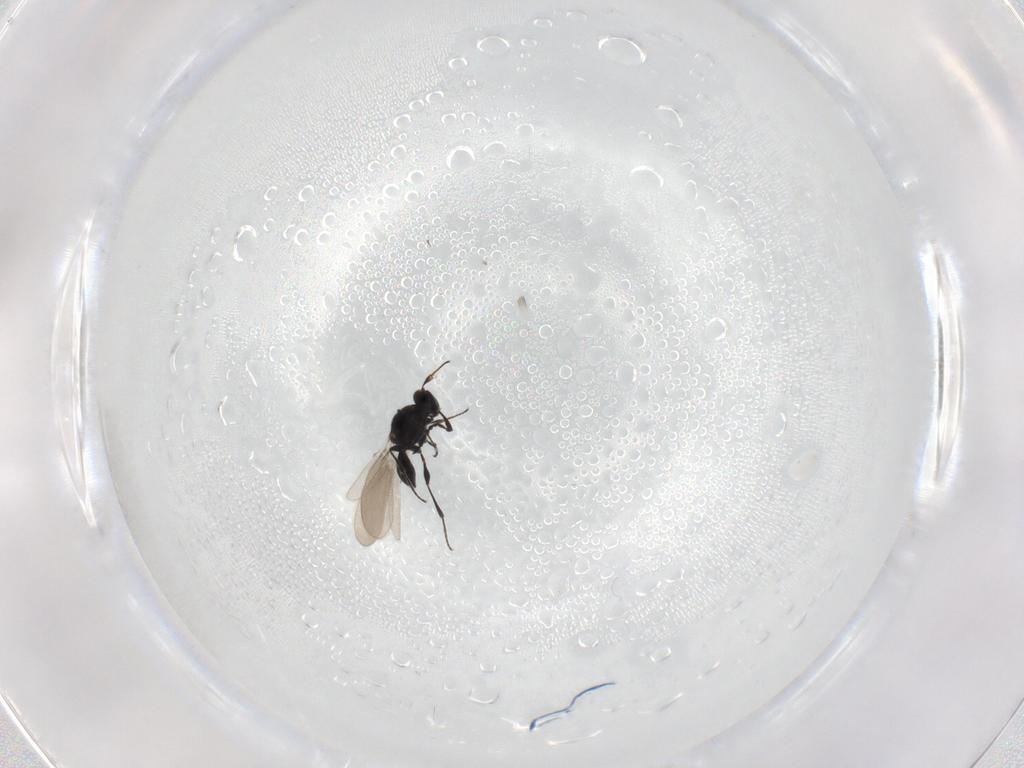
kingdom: Animalia
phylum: Arthropoda
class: Insecta
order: Hymenoptera
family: Platygastridae
